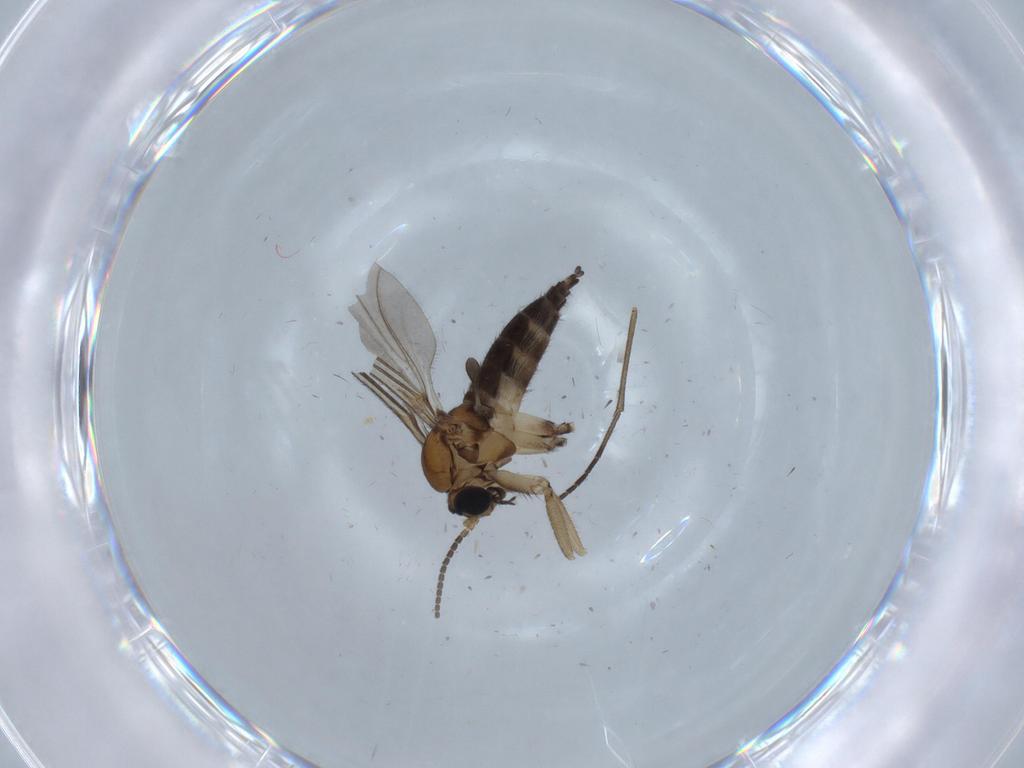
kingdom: Animalia
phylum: Arthropoda
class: Insecta
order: Diptera
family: Sciaridae
